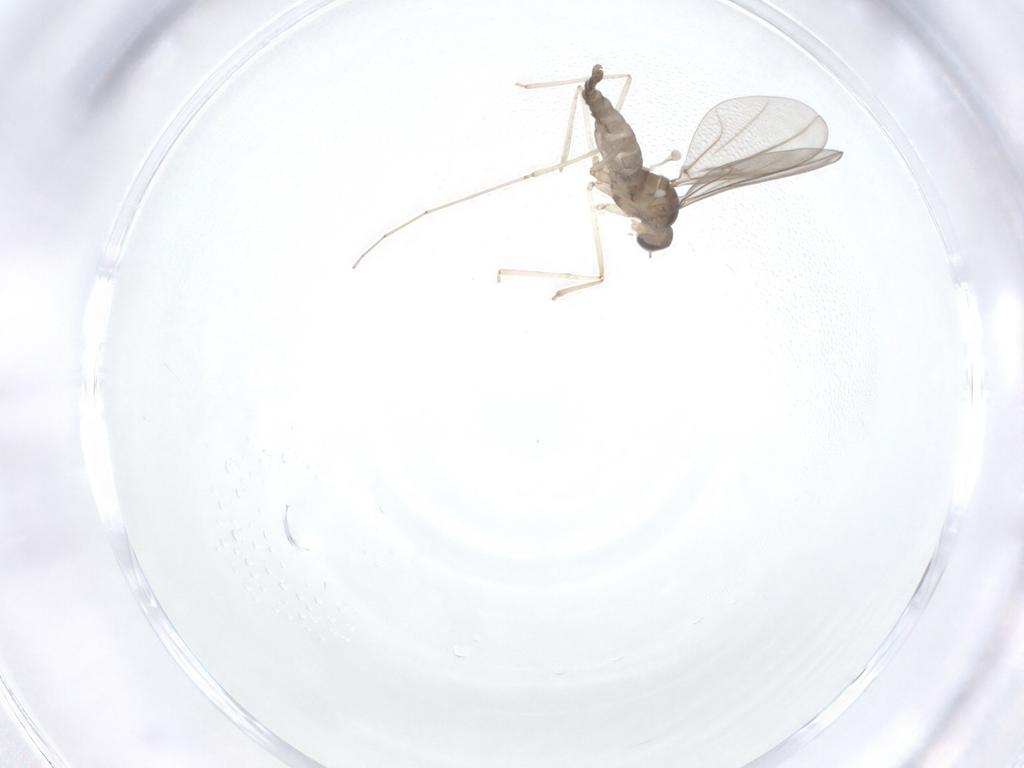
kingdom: Animalia
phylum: Arthropoda
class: Insecta
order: Diptera
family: Cecidomyiidae
